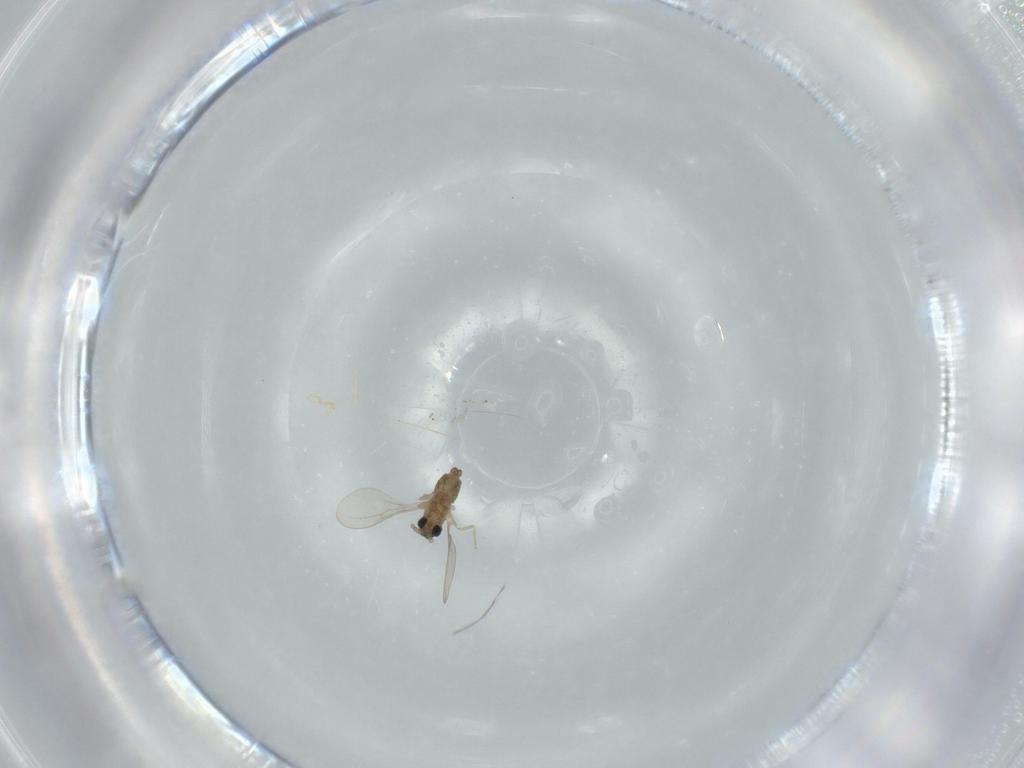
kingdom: Animalia
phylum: Arthropoda
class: Insecta
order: Diptera
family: Cecidomyiidae
